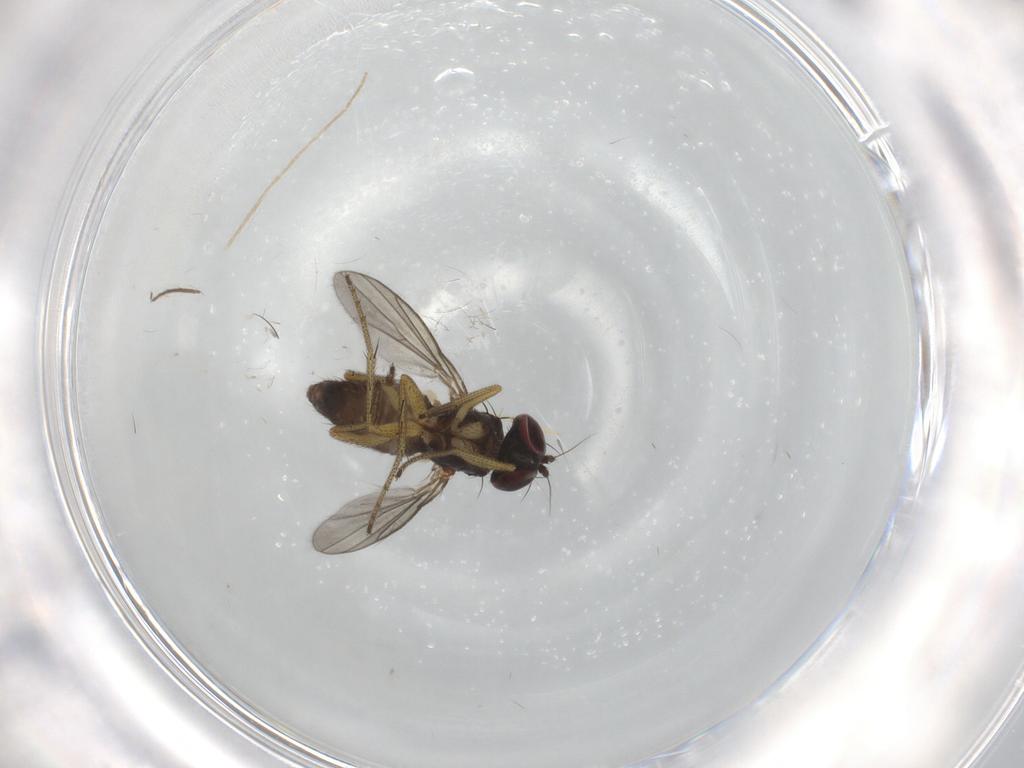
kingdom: Animalia
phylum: Arthropoda
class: Insecta
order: Diptera
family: Dolichopodidae
